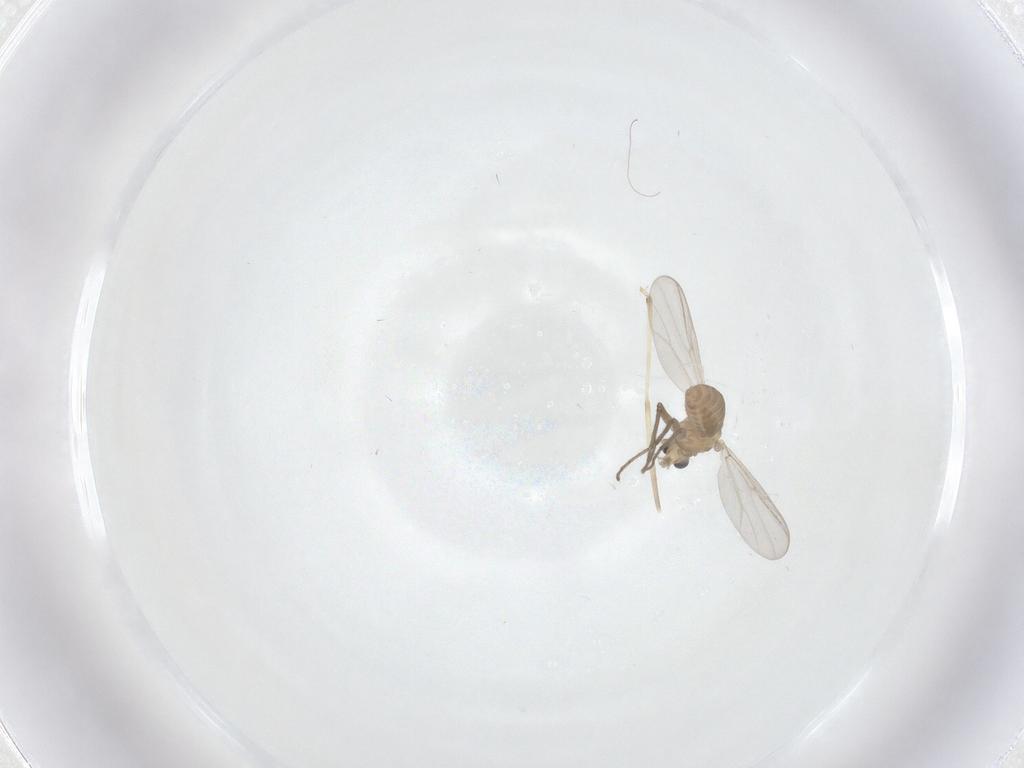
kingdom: Animalia
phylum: Arthropoda
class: Insecta
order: Diptera
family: Chironomidae
